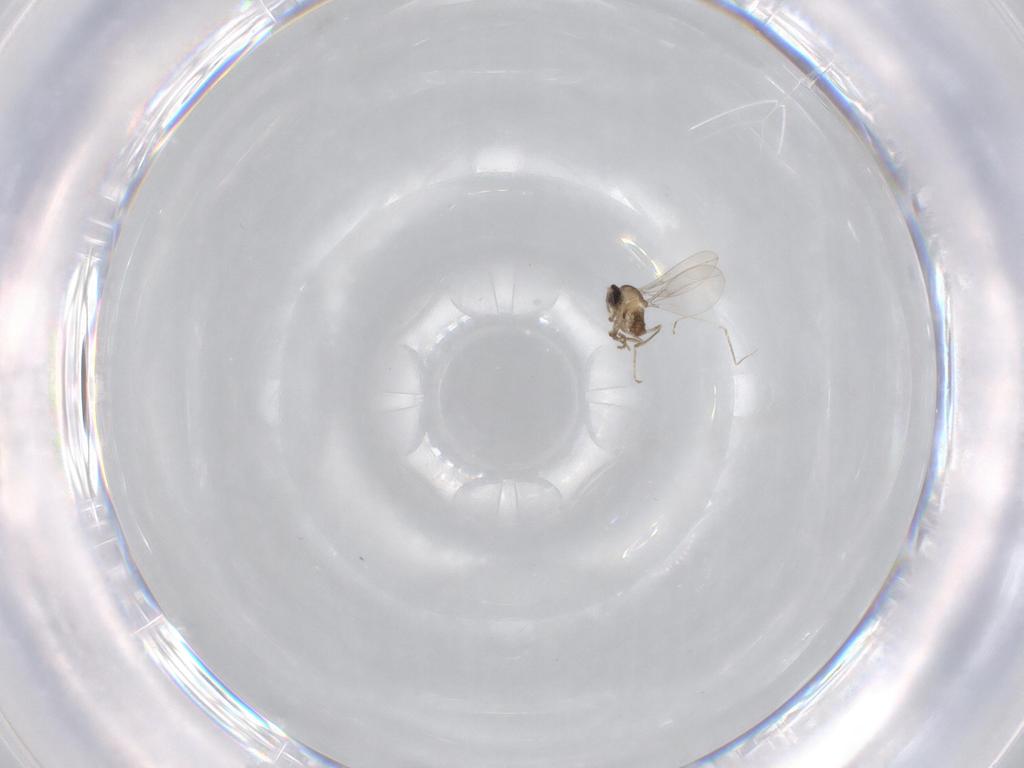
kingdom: Animalia
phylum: Arthropoda
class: Insecta
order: Diptera
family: Cecidomyiidae
